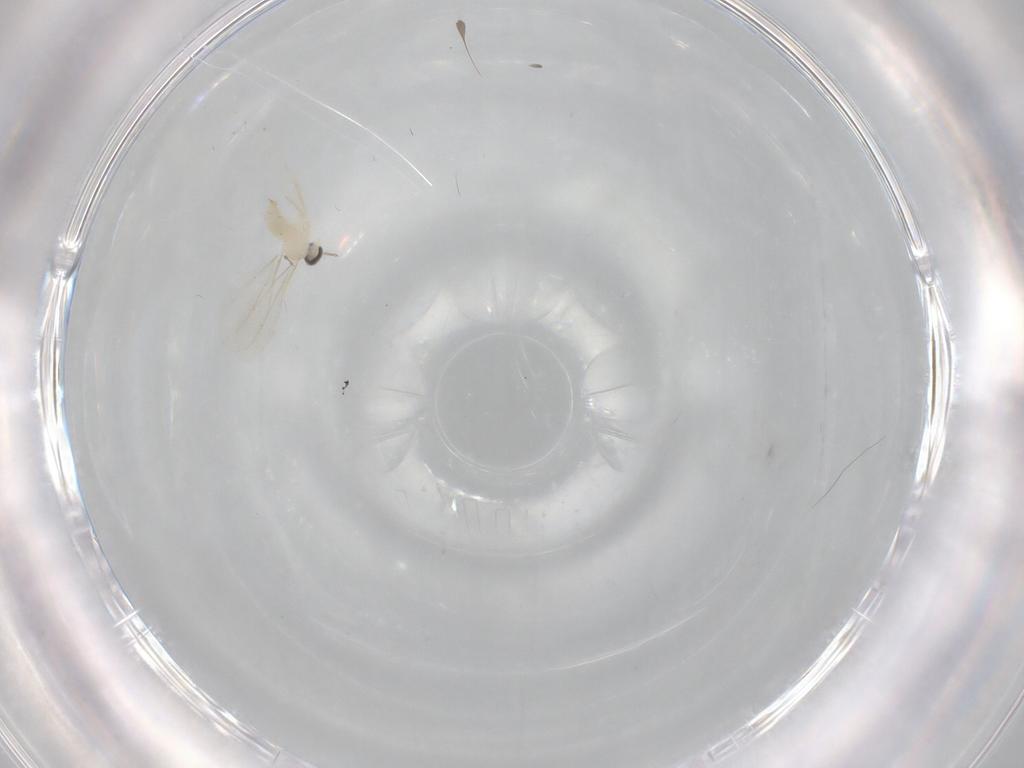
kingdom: Animalia
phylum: Arthropoda
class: Insecta
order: Diptera
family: Cecidomyiidae
